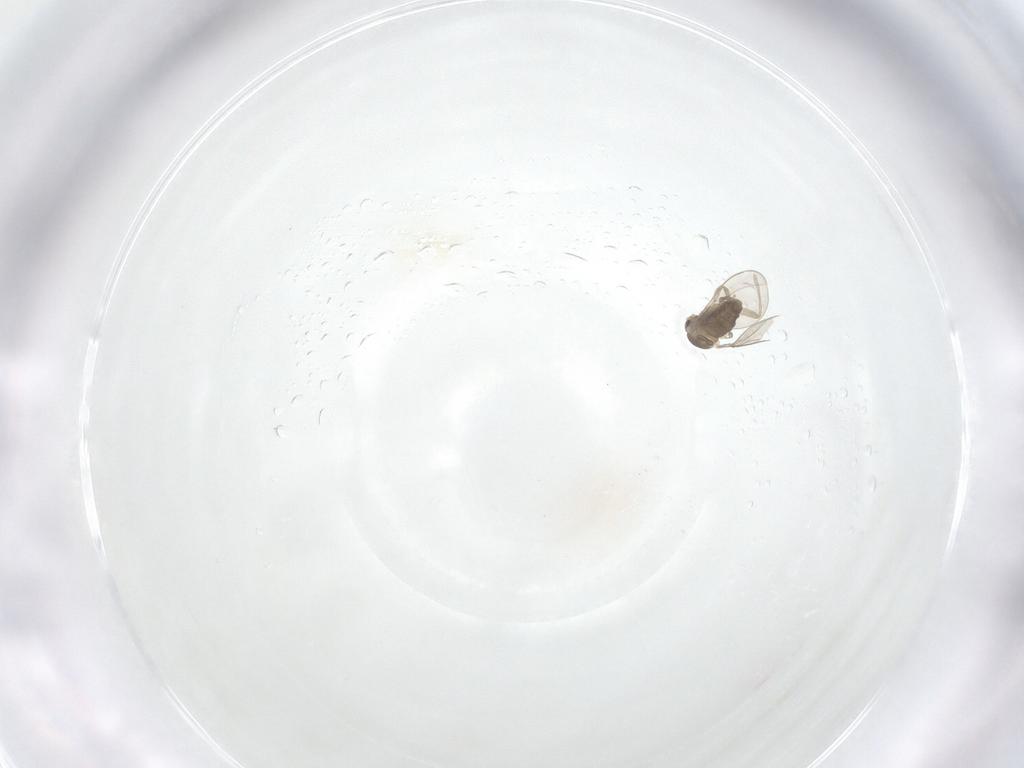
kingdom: Animalia
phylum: Arthropoda
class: Insecta
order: Diptera
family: Cecidomyiidae
